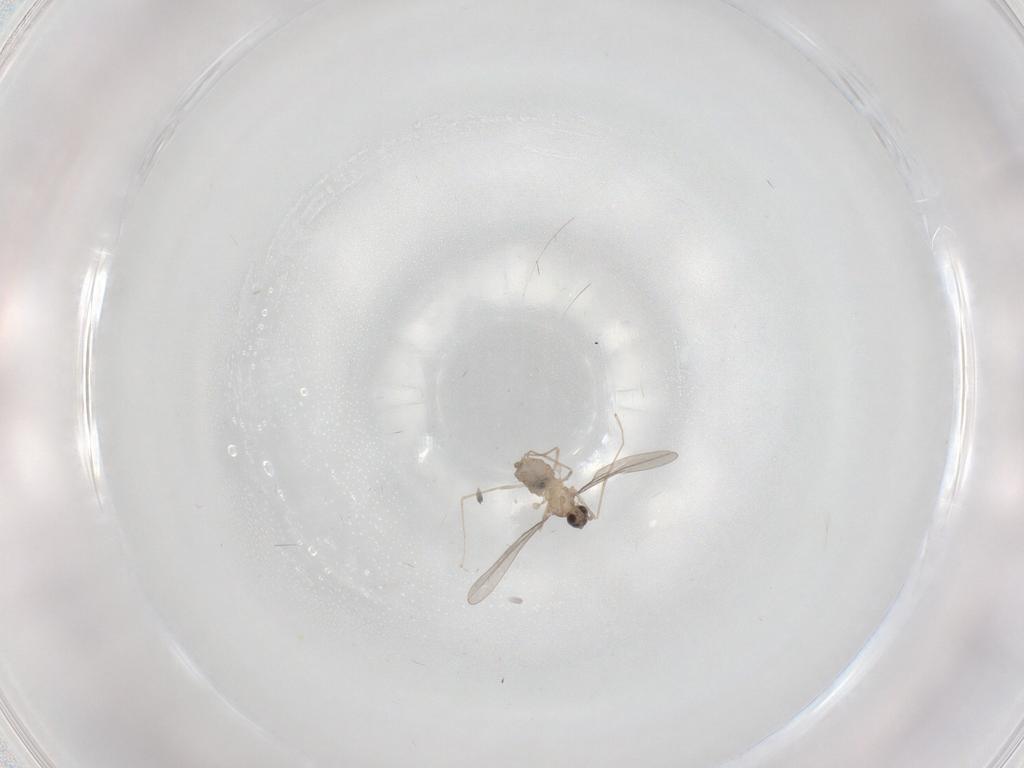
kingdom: Animalia
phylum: Arthropoda
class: Insecta
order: Diptera
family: Cecidomyiidae
